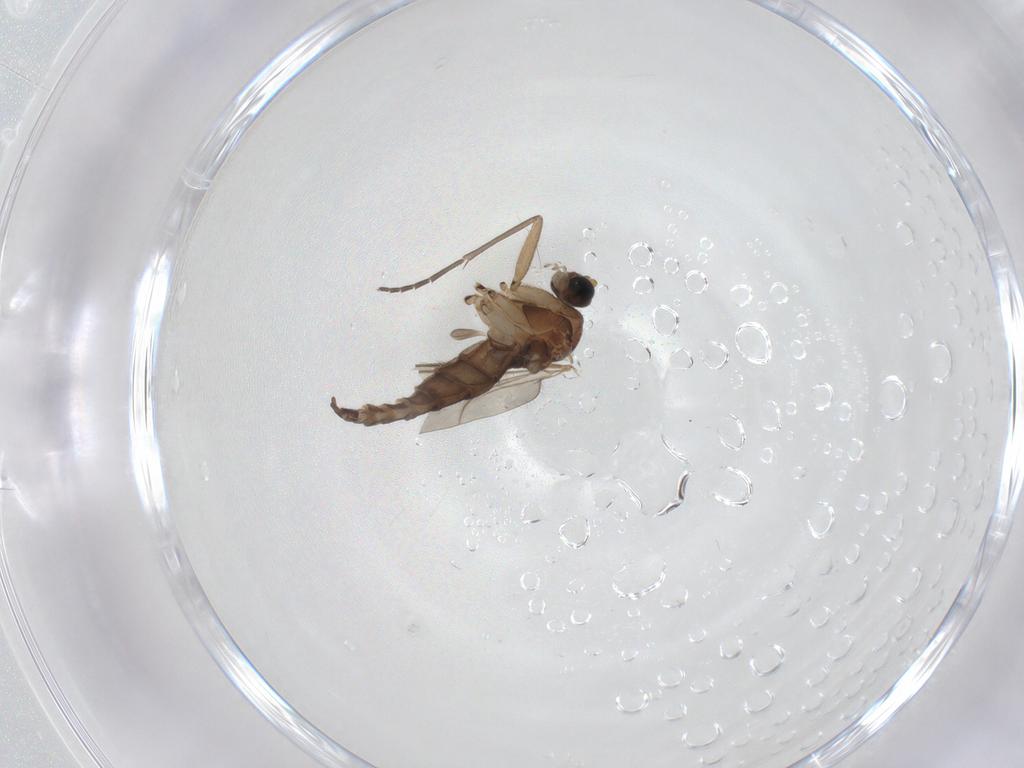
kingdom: Animalia
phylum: Arthropoda
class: Insecta
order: Diptera
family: Sciaridae
